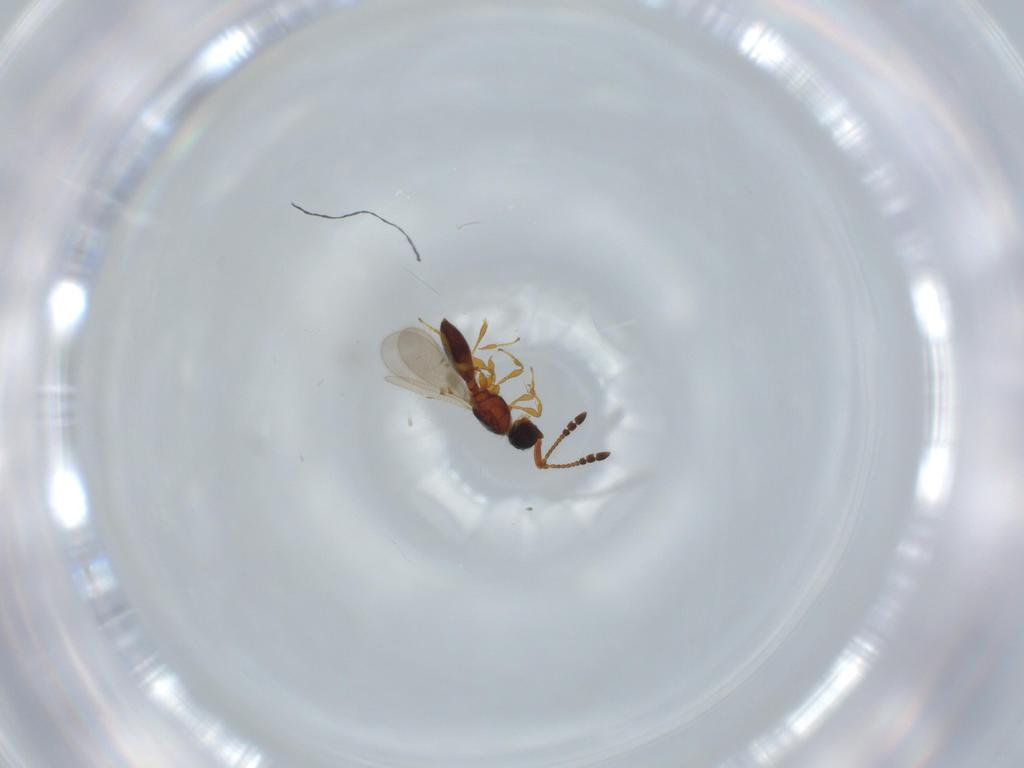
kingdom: Animalia
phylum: Arthropoda
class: Insecta
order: Hymenoptera
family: Diapriidae
